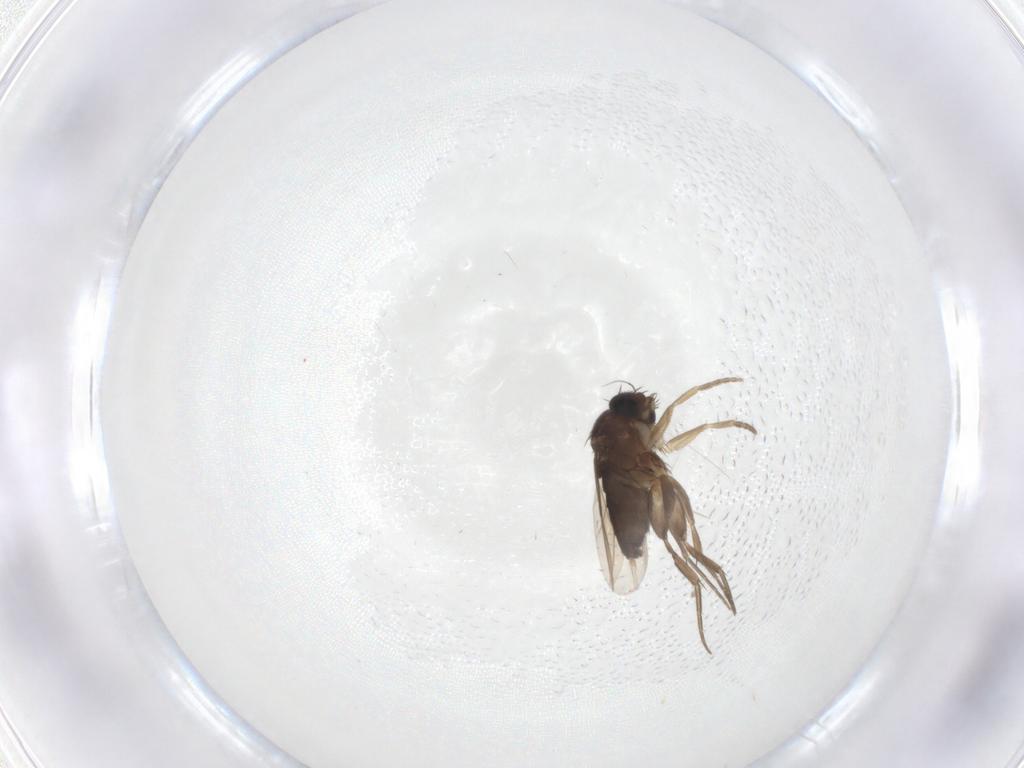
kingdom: Animalia
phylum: Arthropoda
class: Insecta
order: Diptera
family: Phoridae
